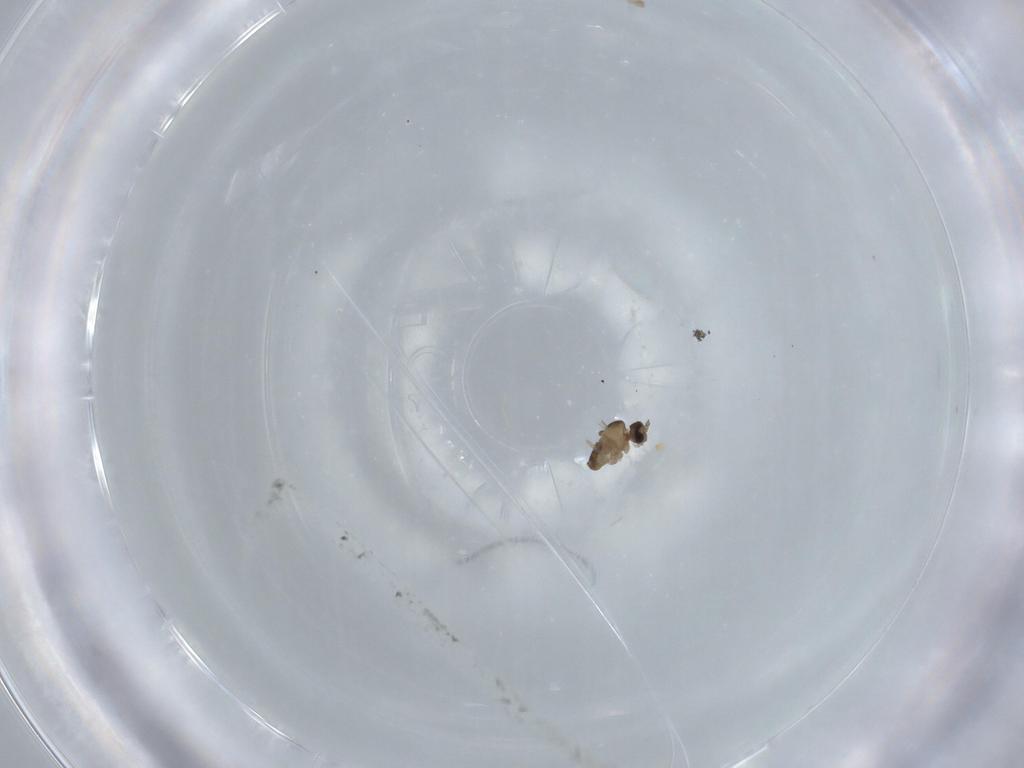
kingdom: Animalia
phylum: Arthropoda
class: Insecta
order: Diptera
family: Cecidomyiidae
